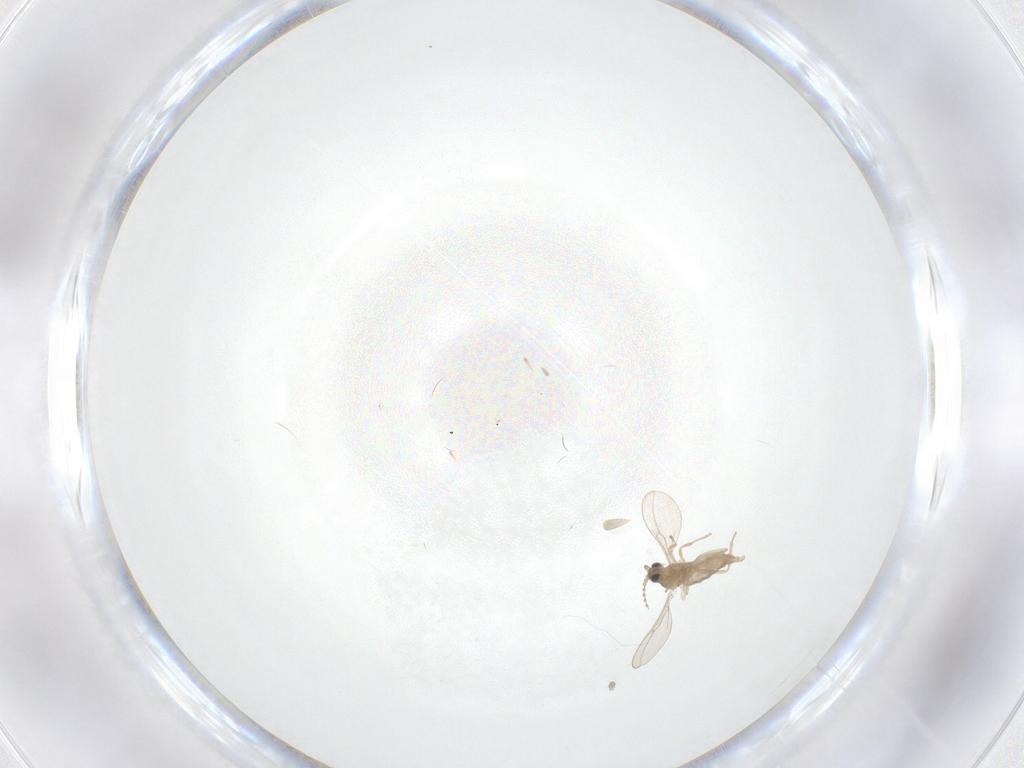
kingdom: Animalia
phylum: Arthropoda
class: Insecta
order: Diptera
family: Cecidomyiidae
